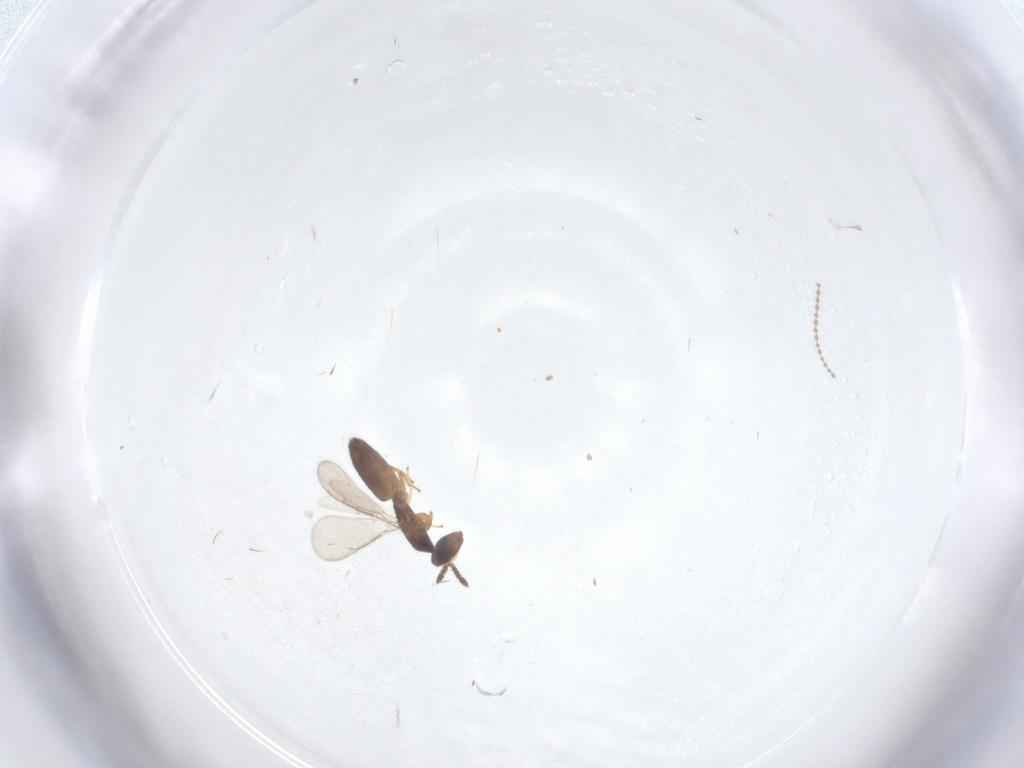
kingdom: Animalia
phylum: Arthropoda
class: Insecta
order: Hymenoptera
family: Eulophidae
